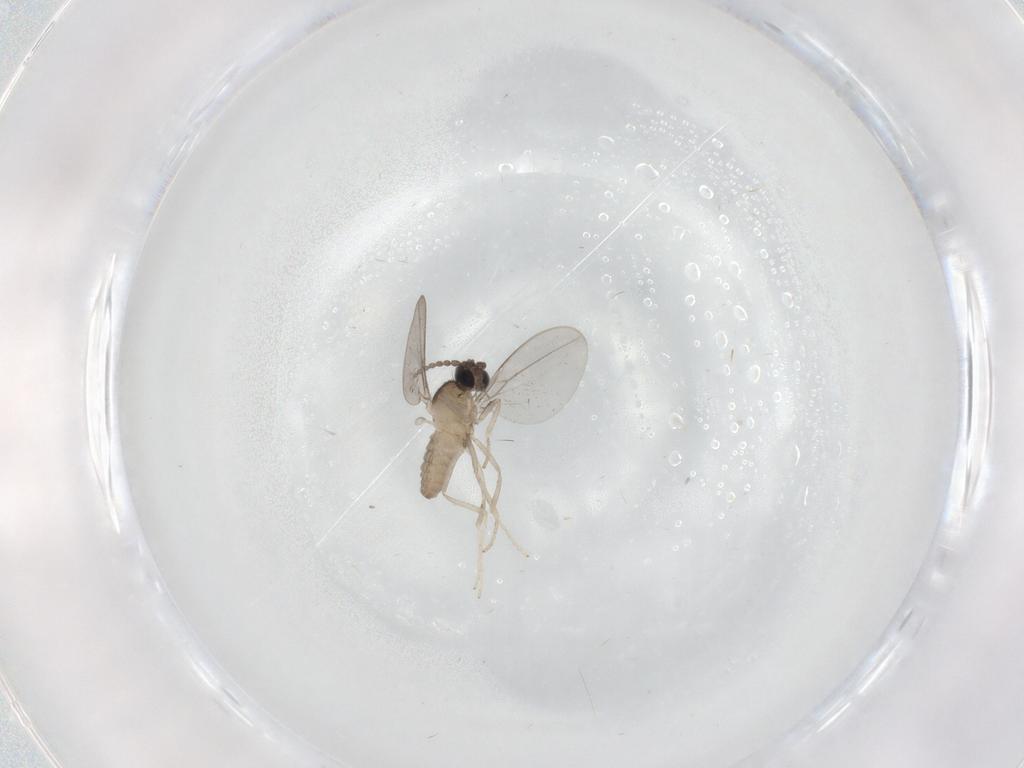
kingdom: Animalia
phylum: Arthropoda
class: Insecta
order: Diptera
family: Cecidomyiidae
